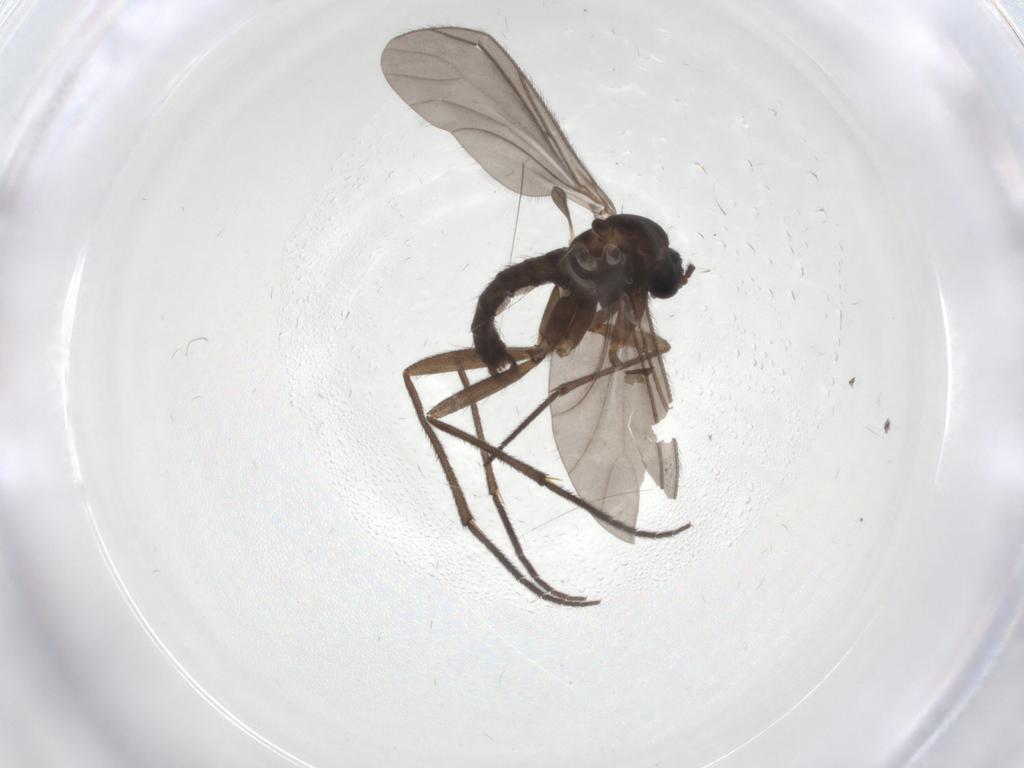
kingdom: Animalia
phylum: Arthropoda
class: Insecta
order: Diptera
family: Sciaridae
